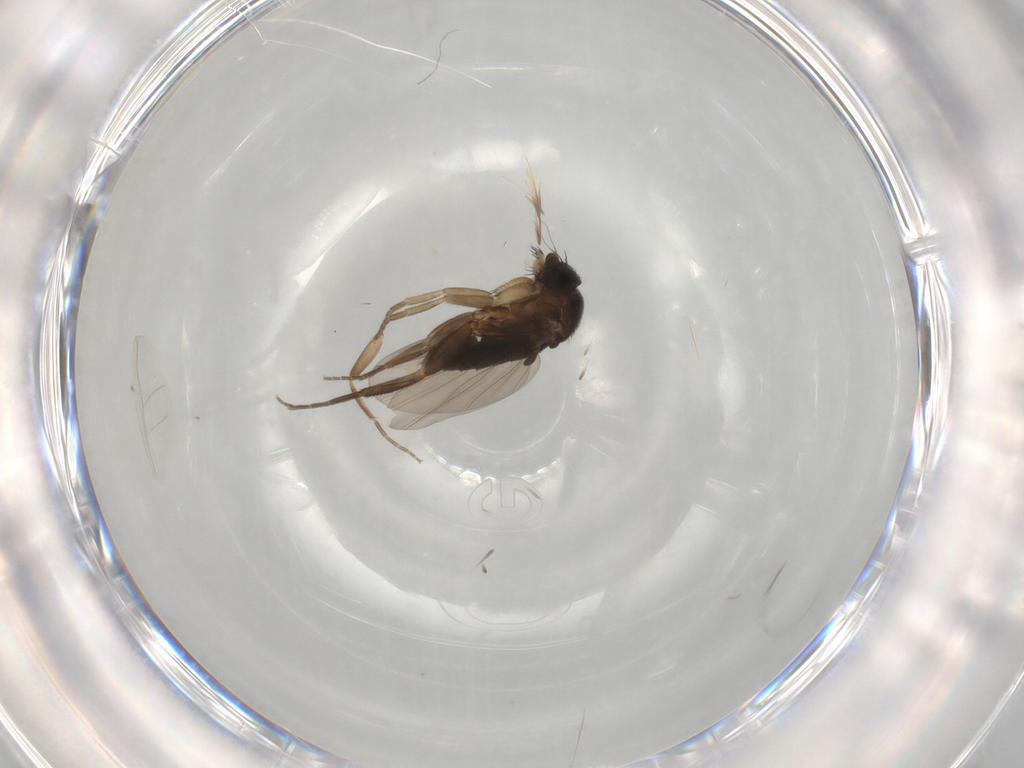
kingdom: Animalia
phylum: Arthropoda
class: Insecta
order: Diptera
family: Phoridae
